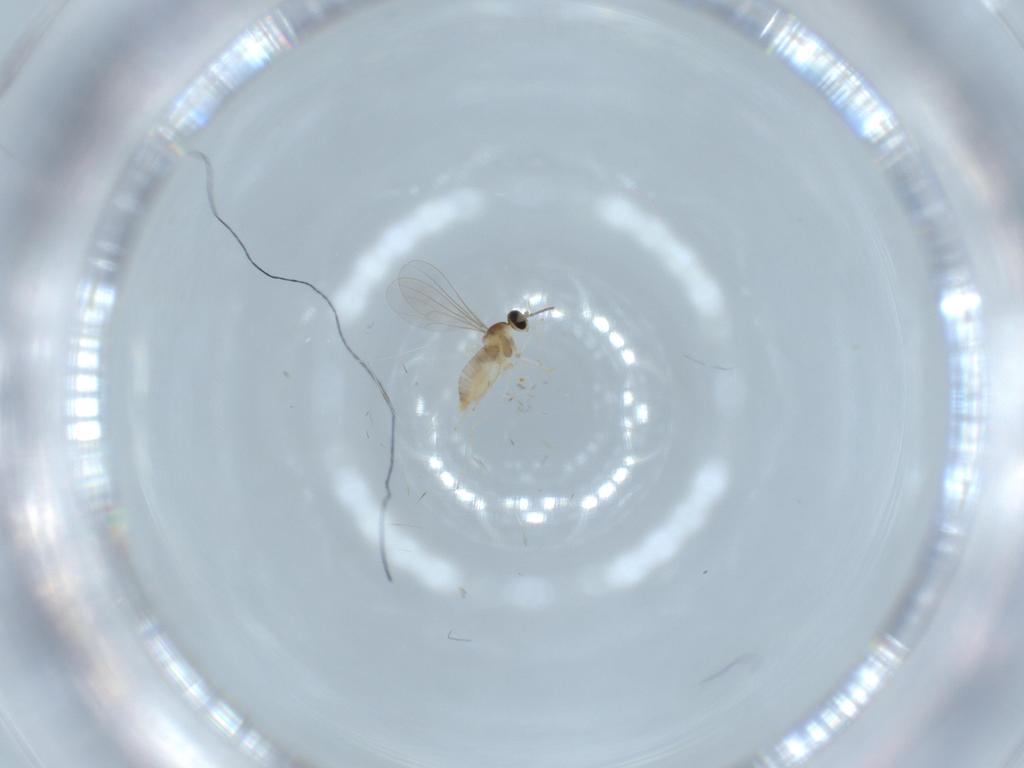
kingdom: Animalia
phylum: Arthropoda
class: Insecta
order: Diptera
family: Cecidomyiidae
